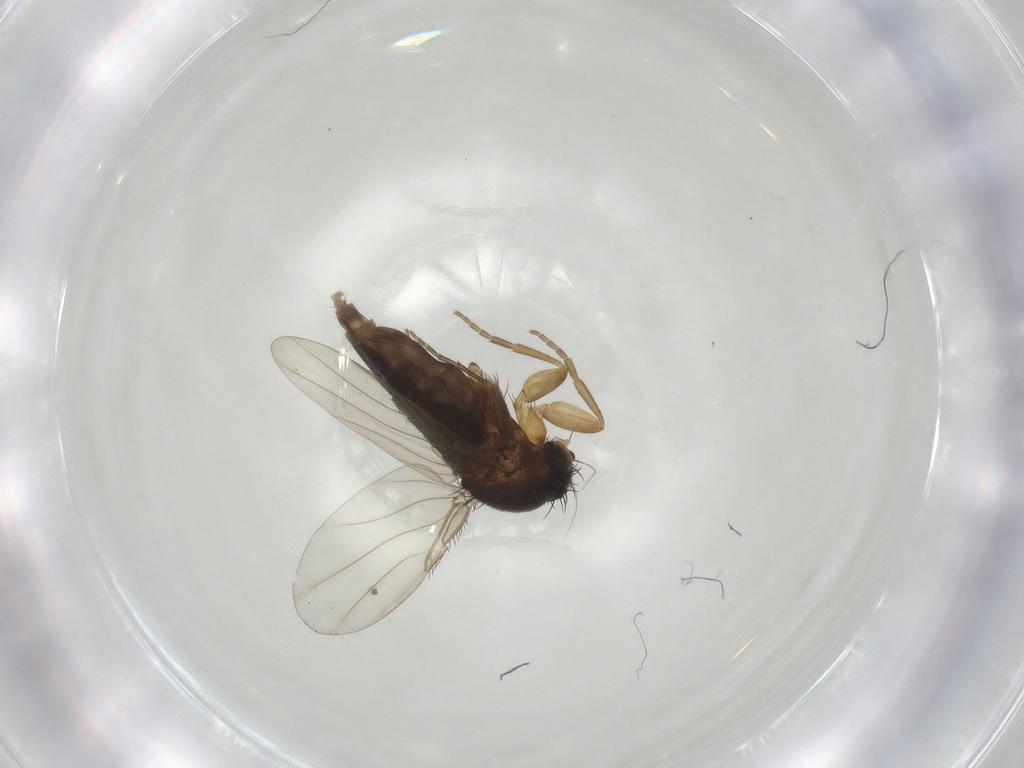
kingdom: Animalia
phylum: Arthropoda
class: Insecta
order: Diptera
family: Phoridae
